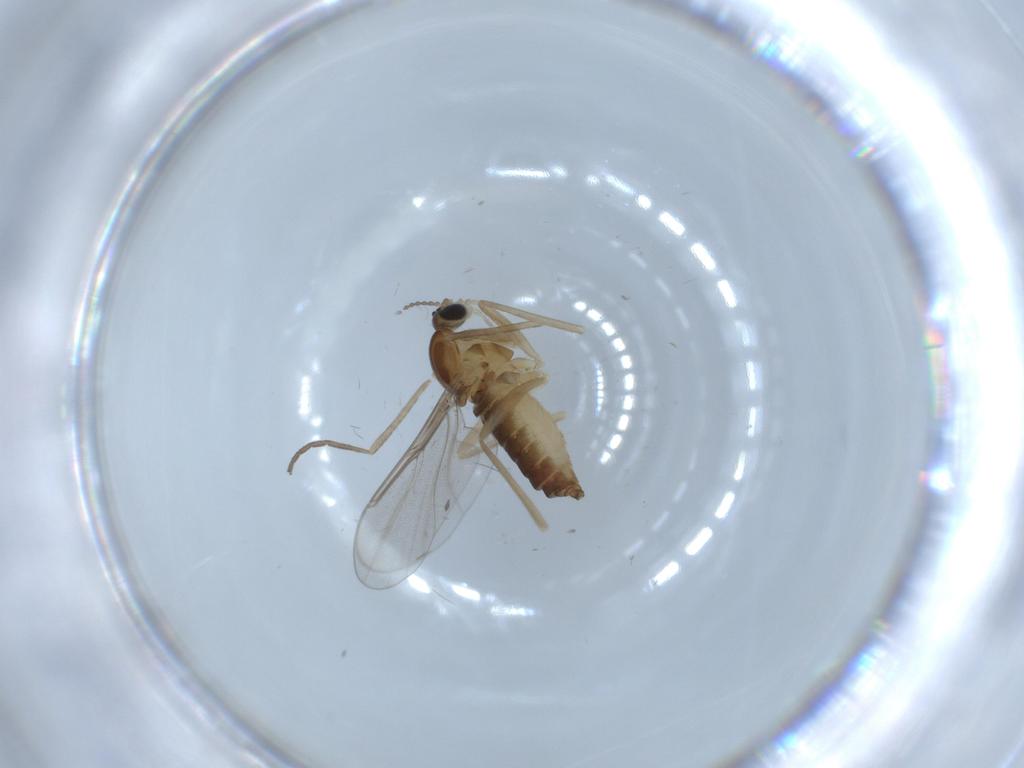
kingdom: Animalia
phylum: Arthropoda
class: Insecta
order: Diptera
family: Cecidomyiidae
